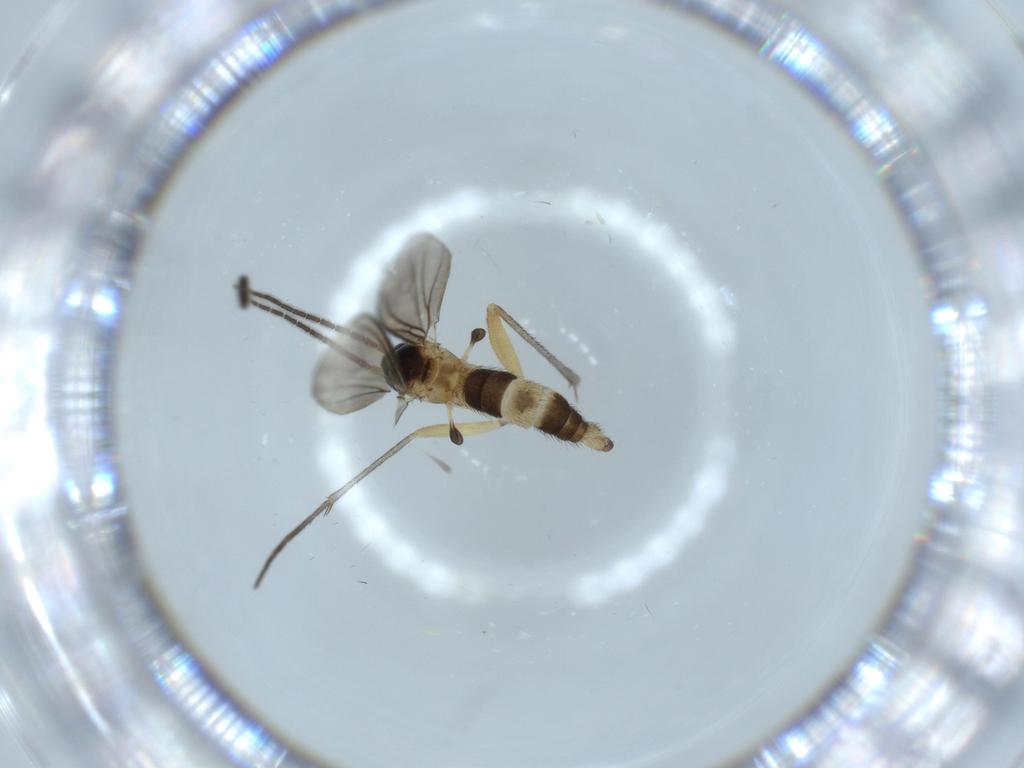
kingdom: Animalia
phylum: Arthropoda
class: Insecta
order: Diptera
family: Sciaridae
